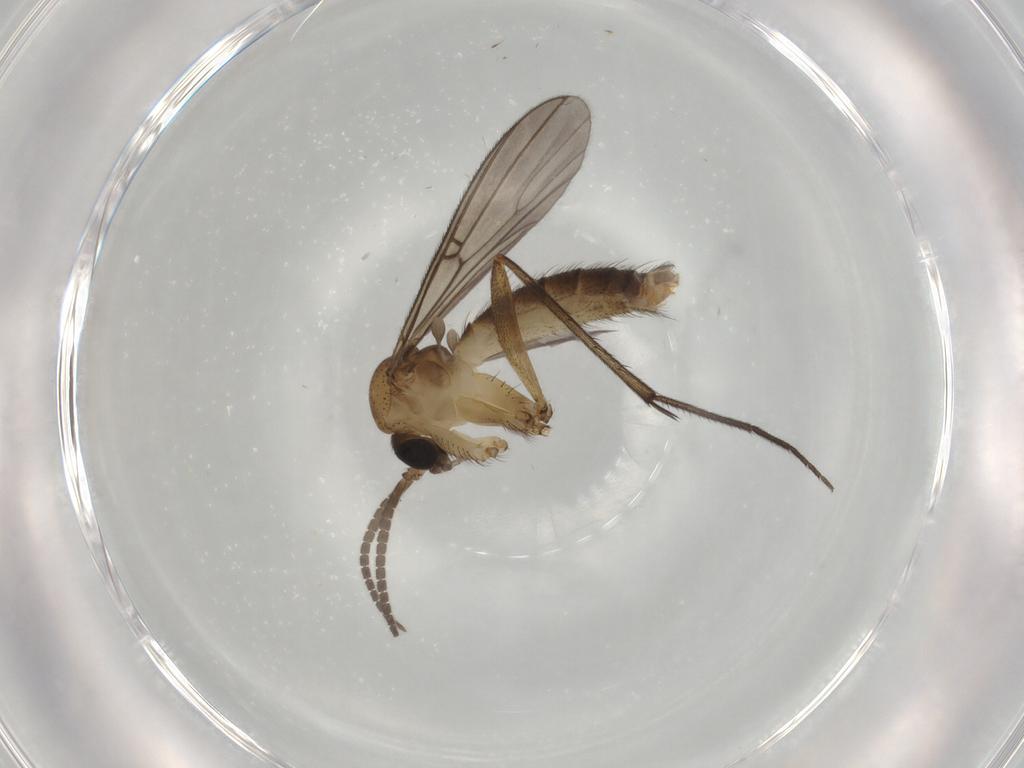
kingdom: Animalia
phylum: Arthropoda
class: Insecta
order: Diptera
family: Mycetophilidae
